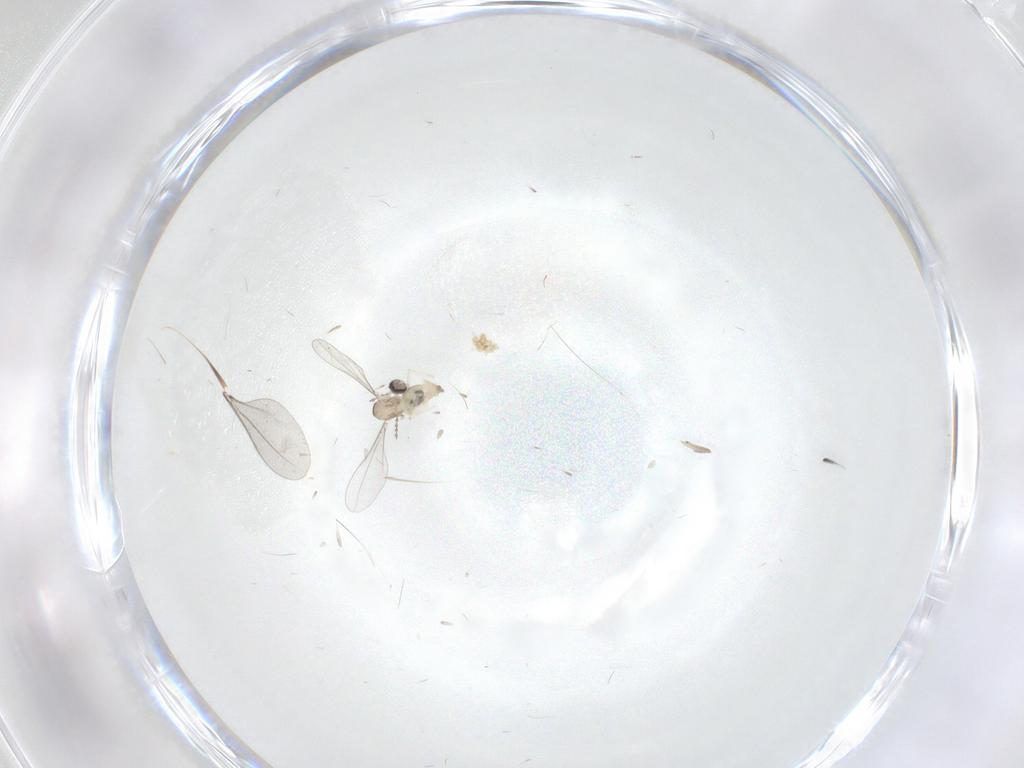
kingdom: Animalia
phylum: Arthropoda
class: Insecta
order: Diptera
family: Cecidomyiidae
